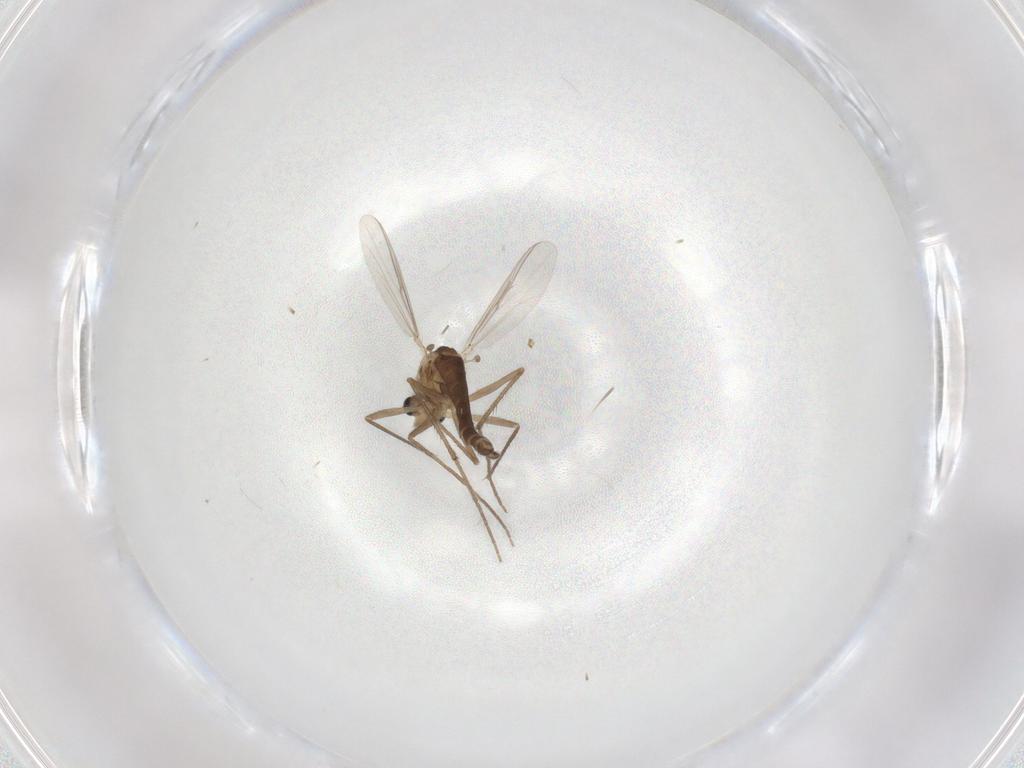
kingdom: Animalia
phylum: Arthropoda
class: Insecta
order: Diptera
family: Chironomidae
